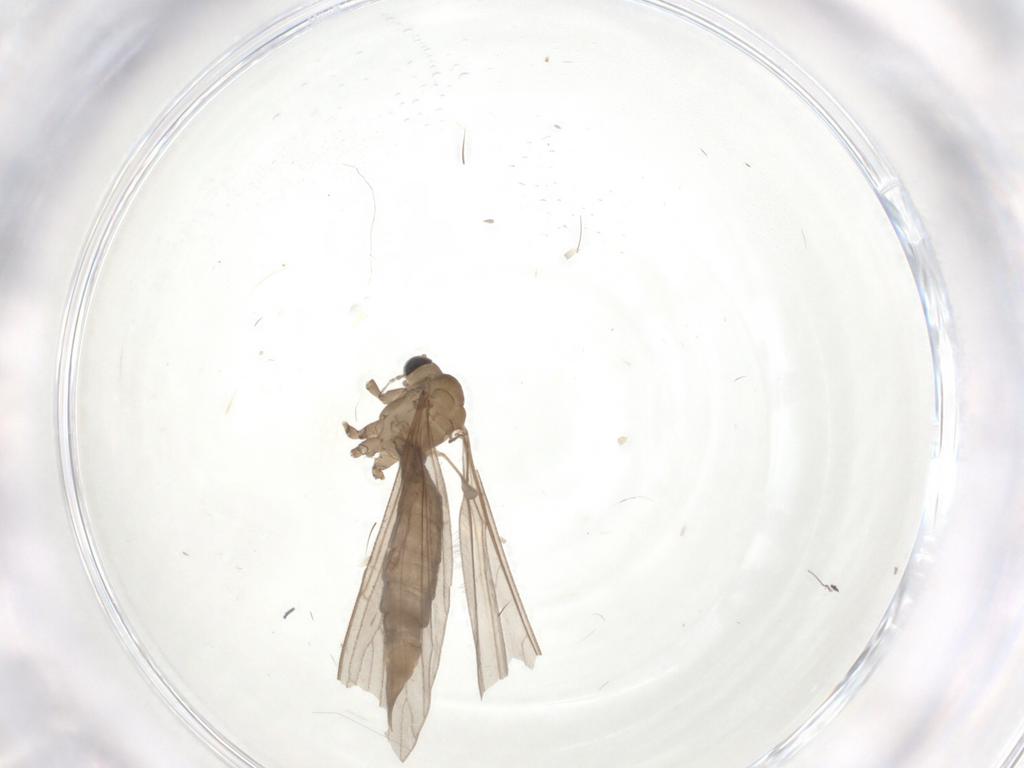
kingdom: Animalia
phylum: Arthropoda
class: Insecta
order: Diptera
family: Limoniidae
